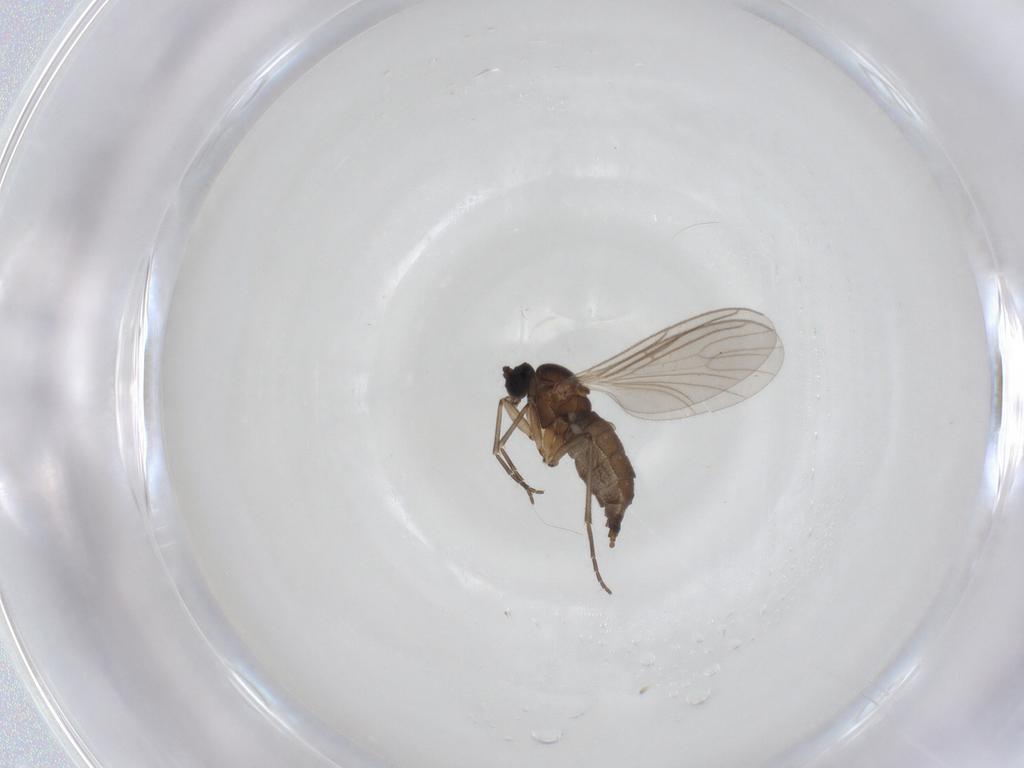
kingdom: Animalia
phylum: Arthropoda
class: Insecta
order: Diptera
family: Sciaridae
